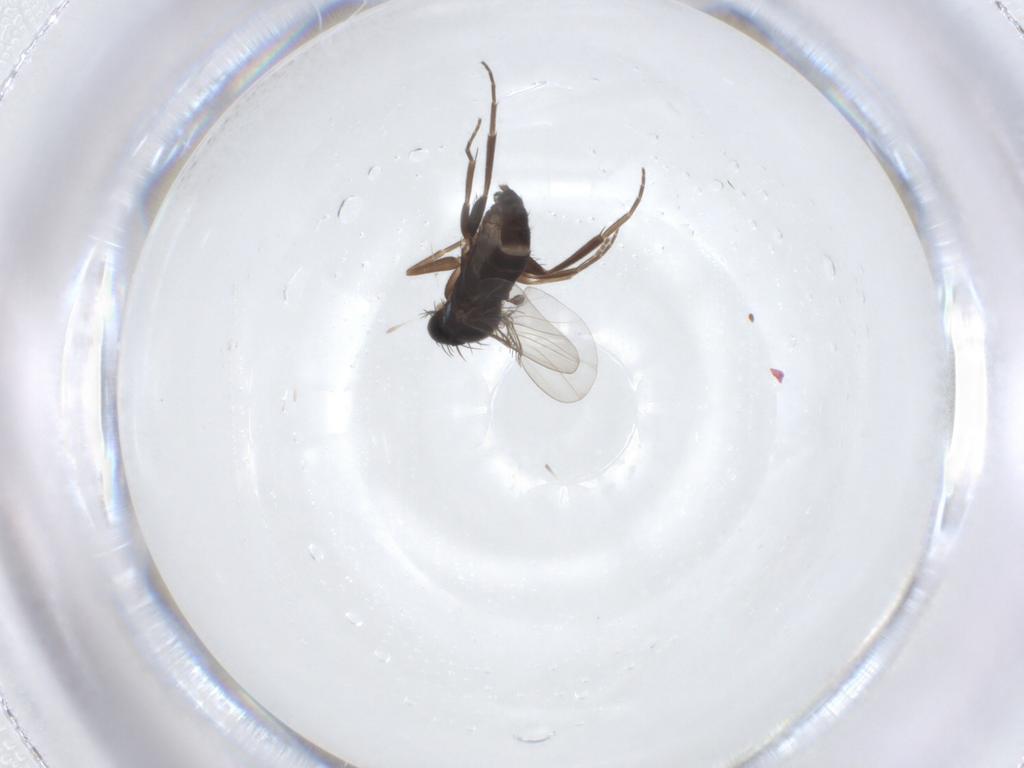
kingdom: Animalia
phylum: Arthropoda
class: Insecta
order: Diptera
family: Phoridae
